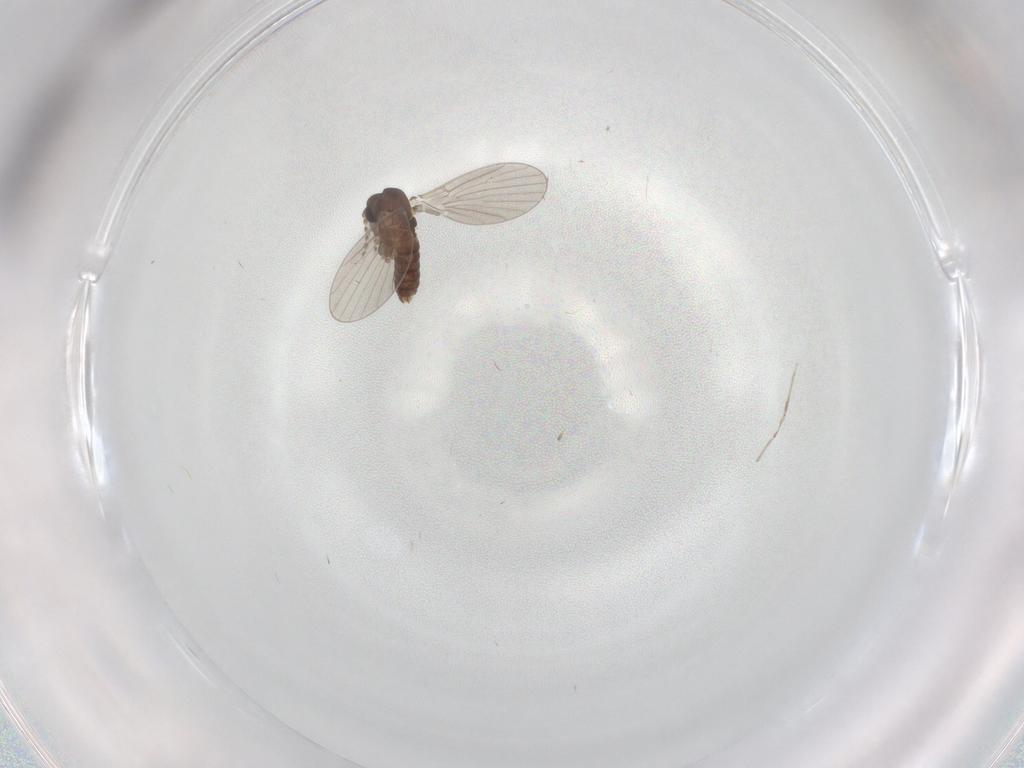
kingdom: Animalia
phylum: Arthropoda
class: Insecta
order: Diptera
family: Cecidomyiidae
